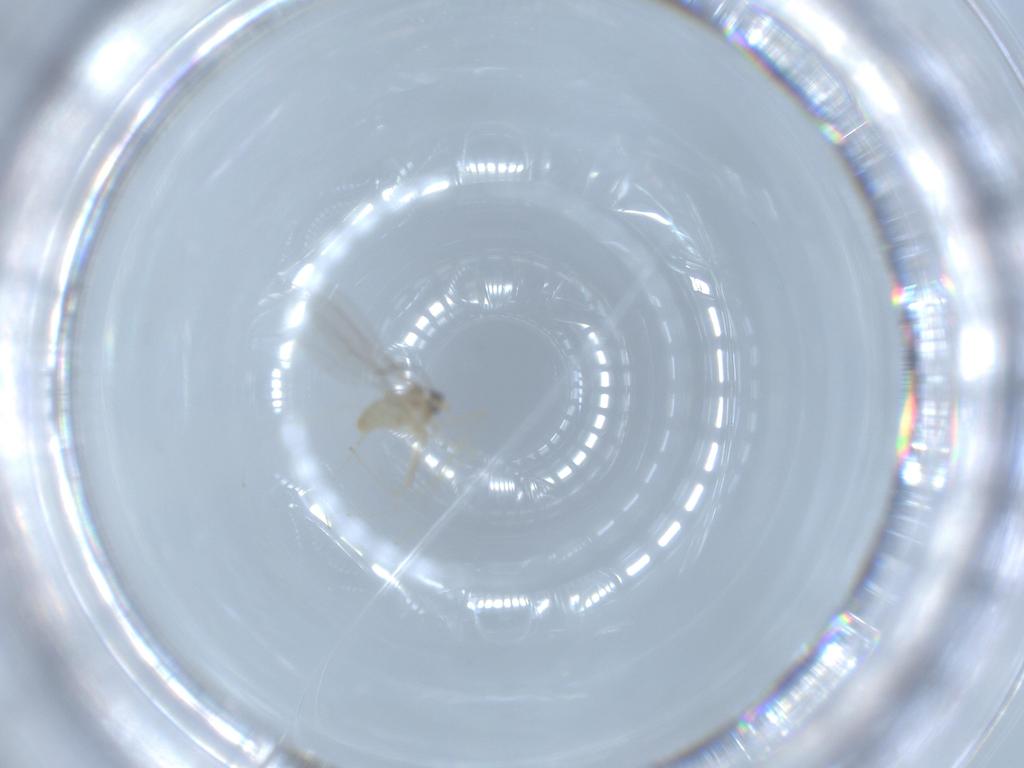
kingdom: Animalia
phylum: Arthropoda
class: Insecta
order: Diptera
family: Cecidomyiidae
